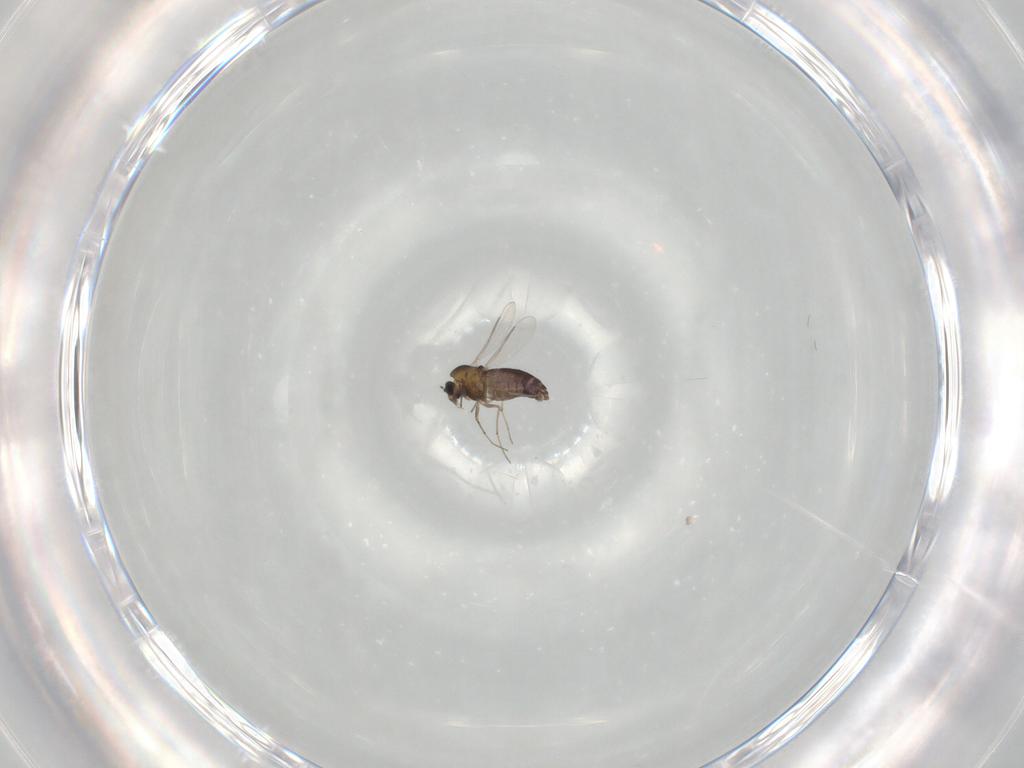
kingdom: Animalia
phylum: Arthropoda
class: Insecta
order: Diptera
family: Chironomidae
